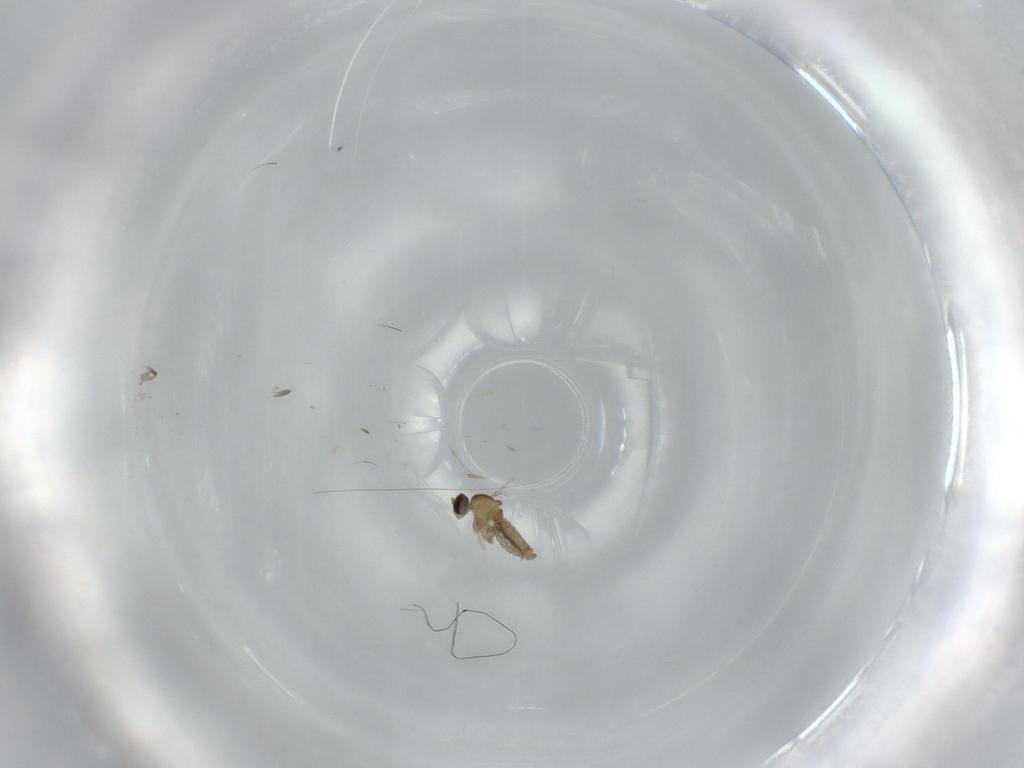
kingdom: Animalia
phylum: Arthropoda
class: Insecta
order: Diptera
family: Cecidomyiidae
